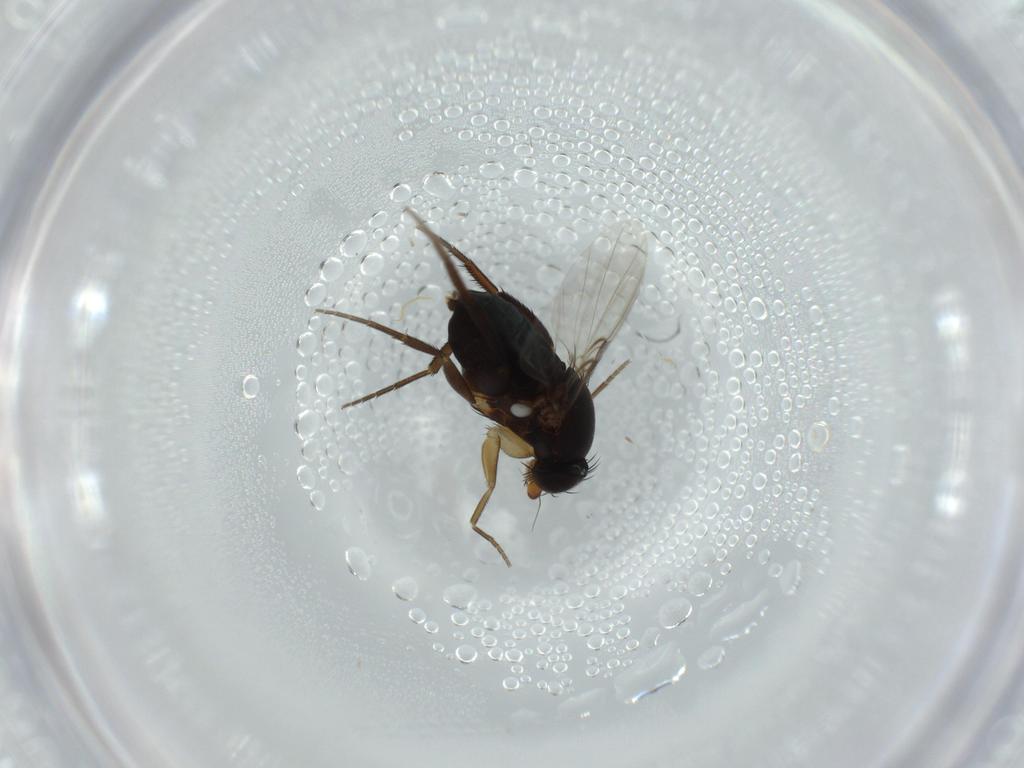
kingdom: Animalia
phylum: Arthropoda
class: Insecta
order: Diptera
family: Phoridae
